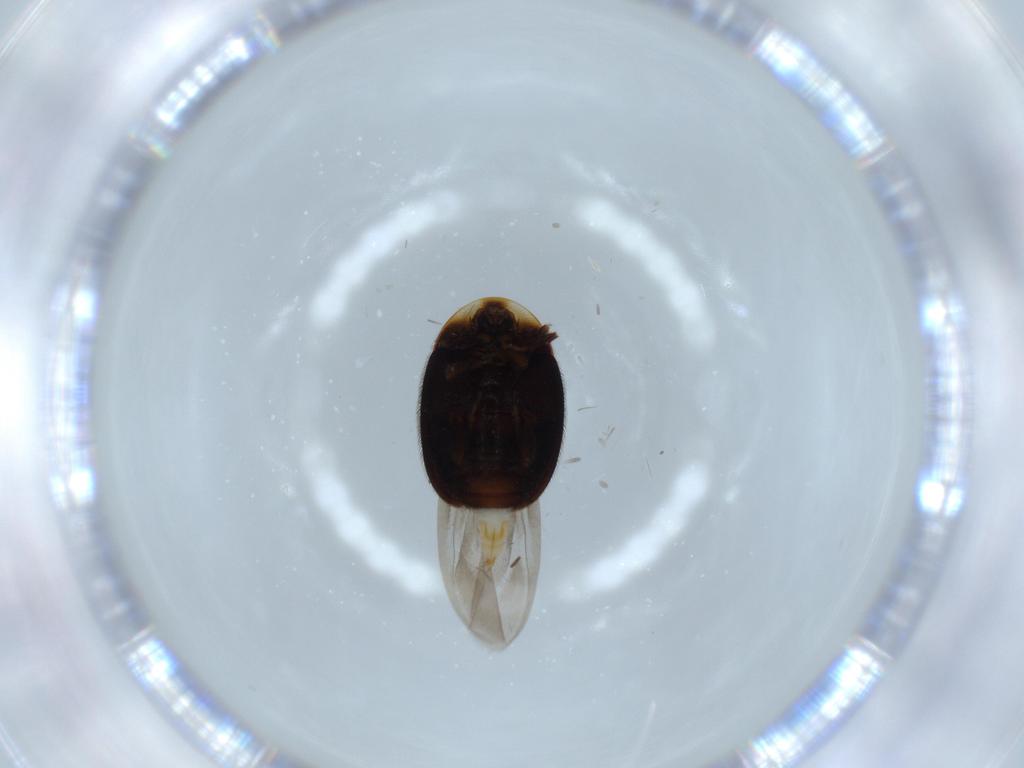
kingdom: Animalia
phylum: Arthropoda
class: Insecta
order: Coleoptera
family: Corylophidae
